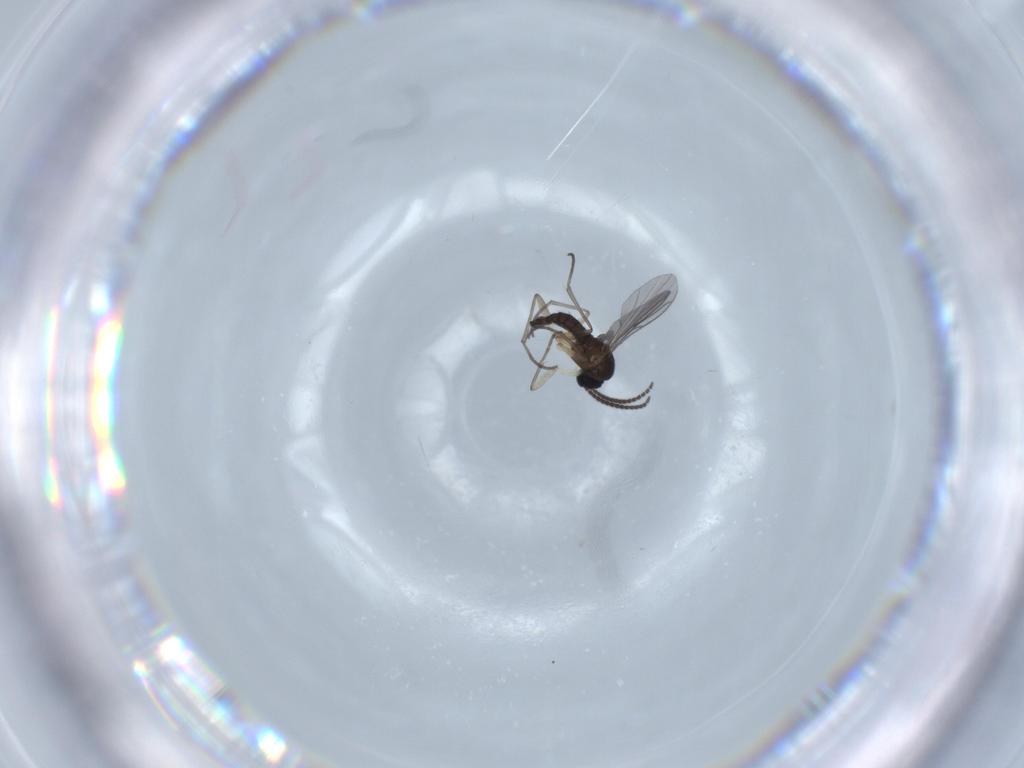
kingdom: Animalia
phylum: Arthropoda
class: Insecta
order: Diptera
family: Sciaridae
